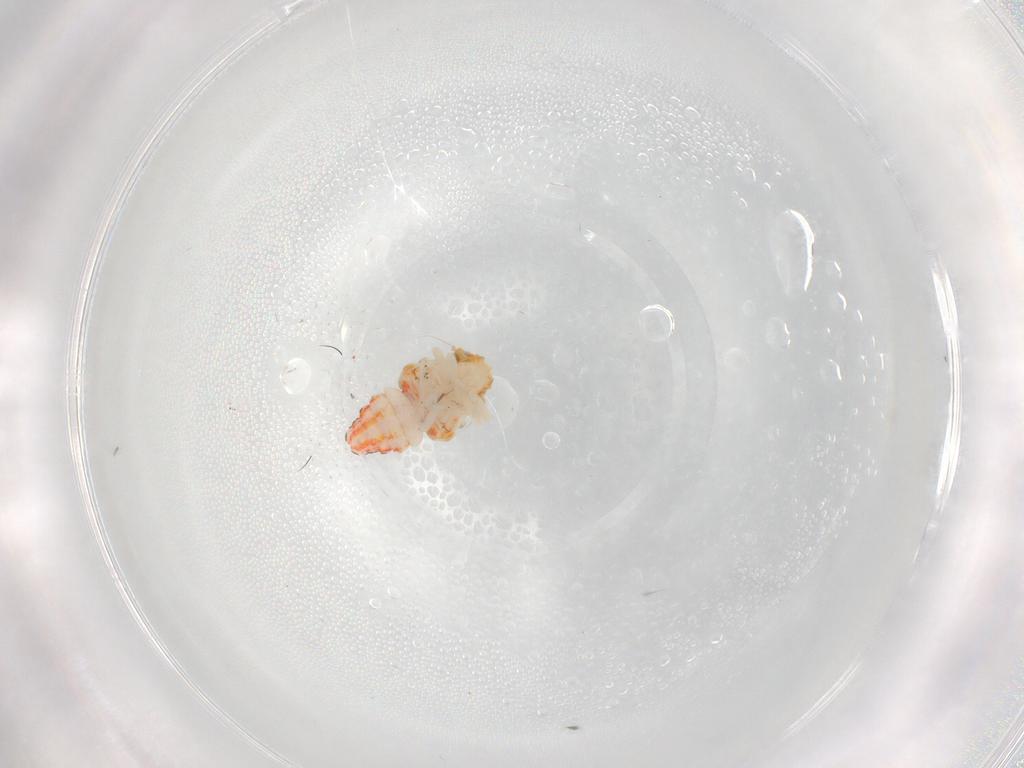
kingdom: Animalia
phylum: Arthropoda
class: Insecta
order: Hemiptera
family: Nogodinidae
